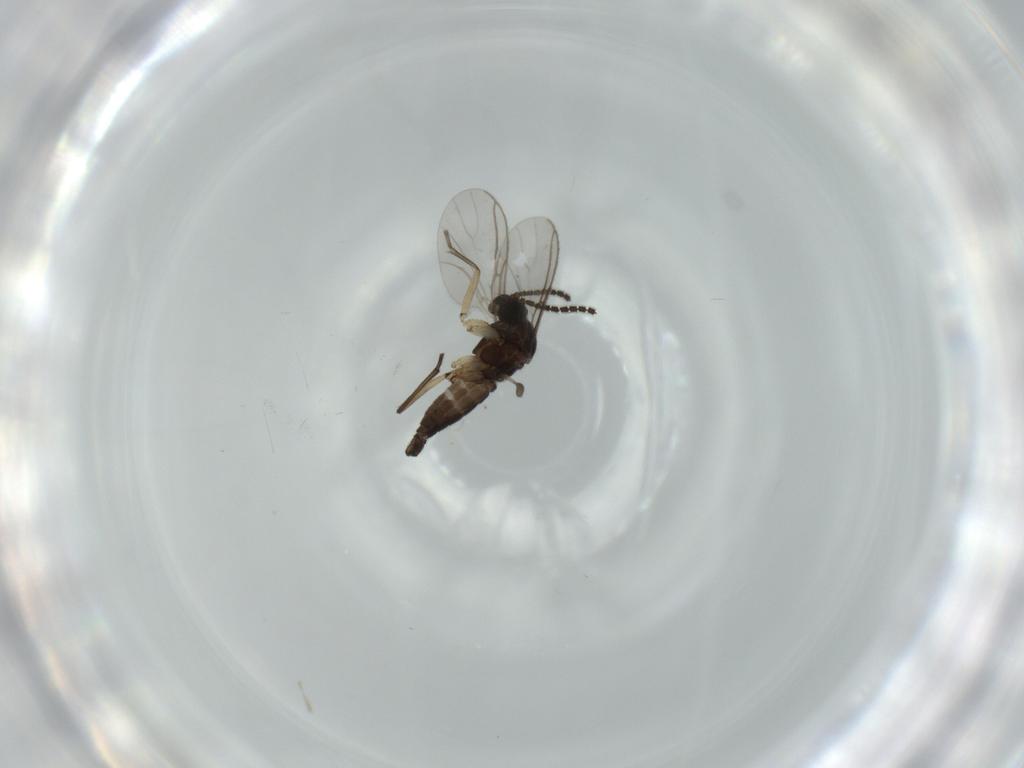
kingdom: Animalia
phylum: Arthropoda
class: Insecta
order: Diptera
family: Sciaridae
